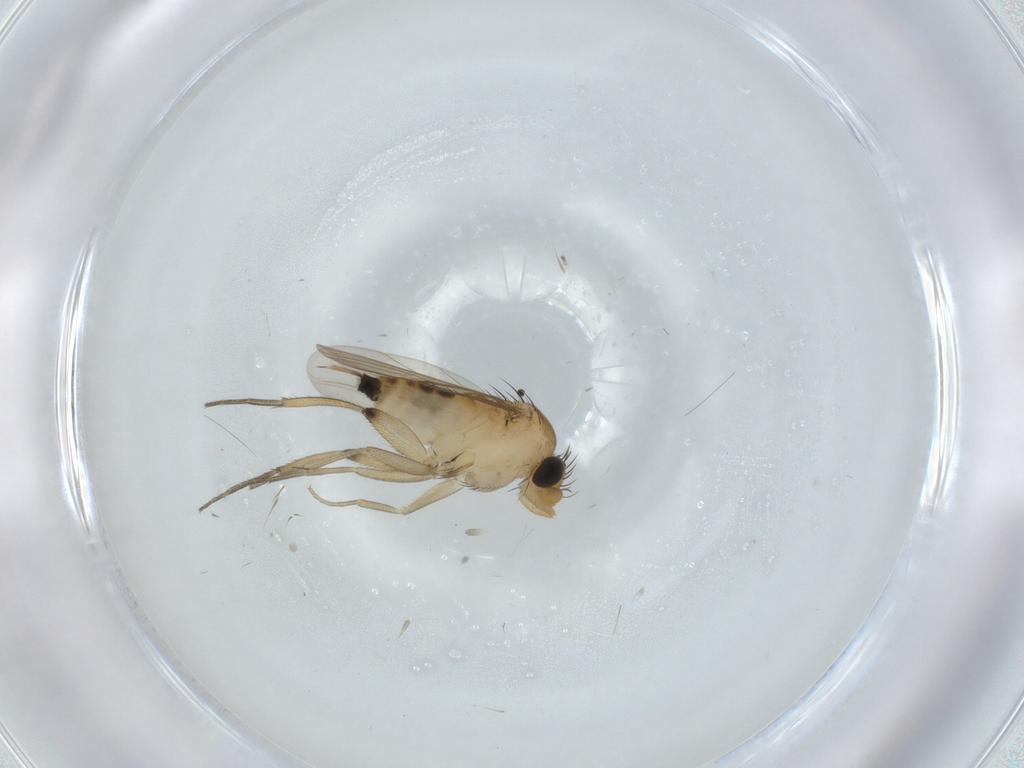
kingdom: Animalia
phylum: Arthropoda
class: Insecta
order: Diptera
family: Phoridae
